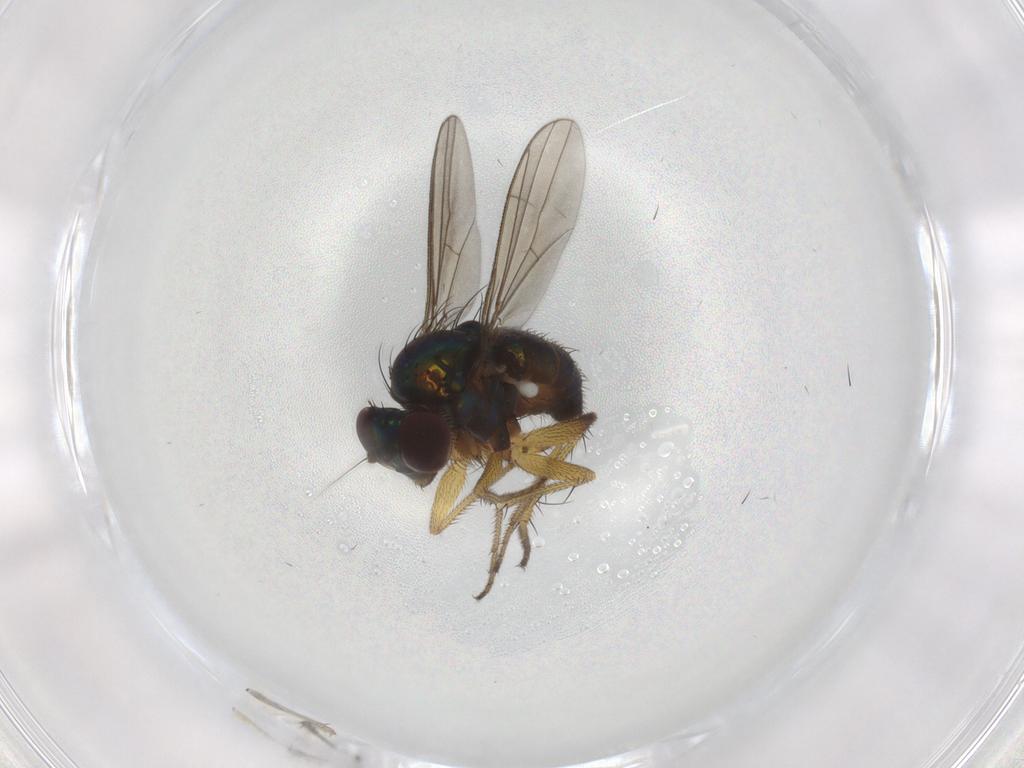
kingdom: Animalia
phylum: Arthropoda
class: Insecta
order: Diptera
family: Dolichopodidae
